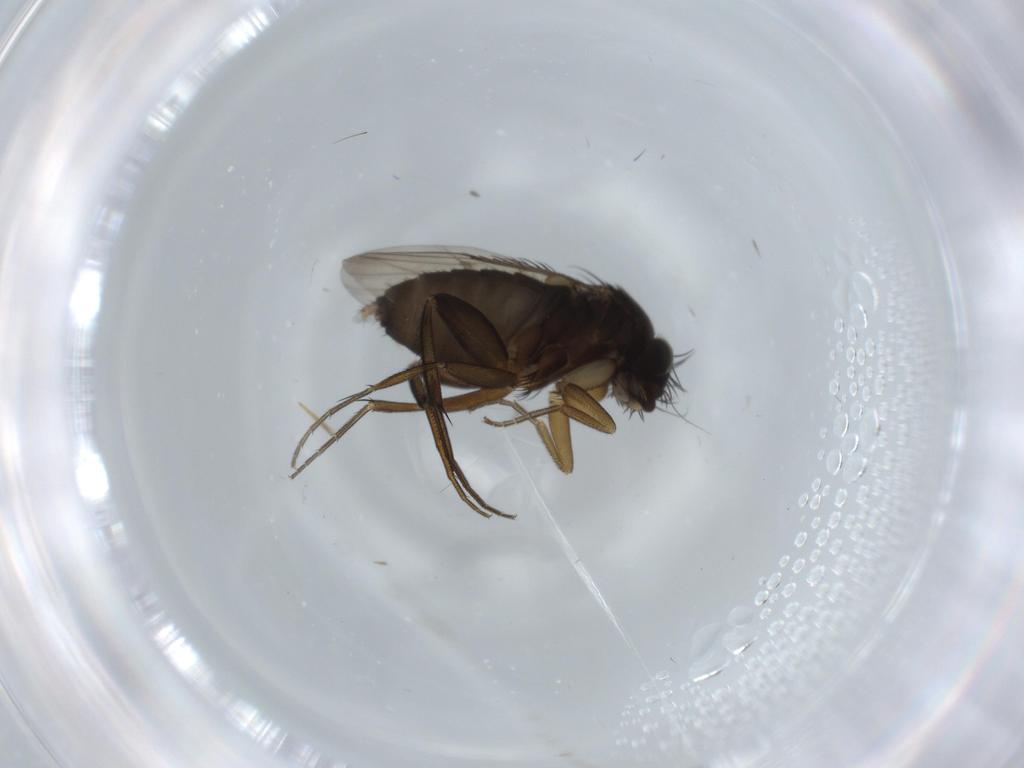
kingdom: Animalia
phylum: Arthropoda
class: Insecta
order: Diptera
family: Phoridae
